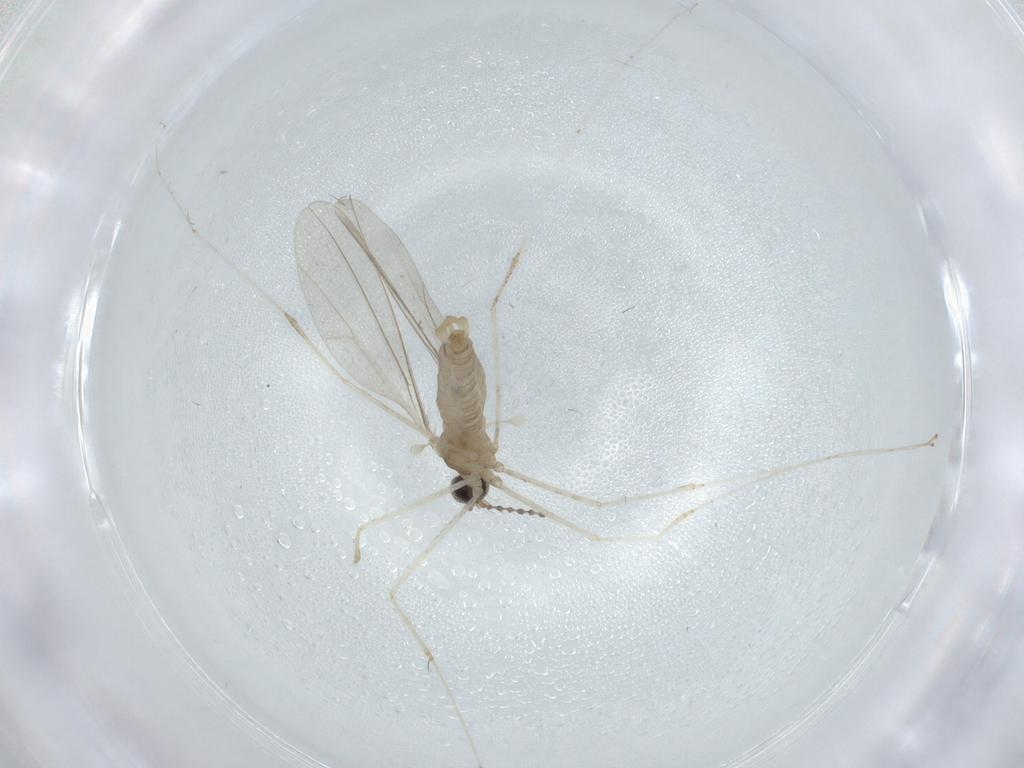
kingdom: Animalia
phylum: Arthropoda
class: Insecta
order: Diptera
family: Cecidomyiidae
